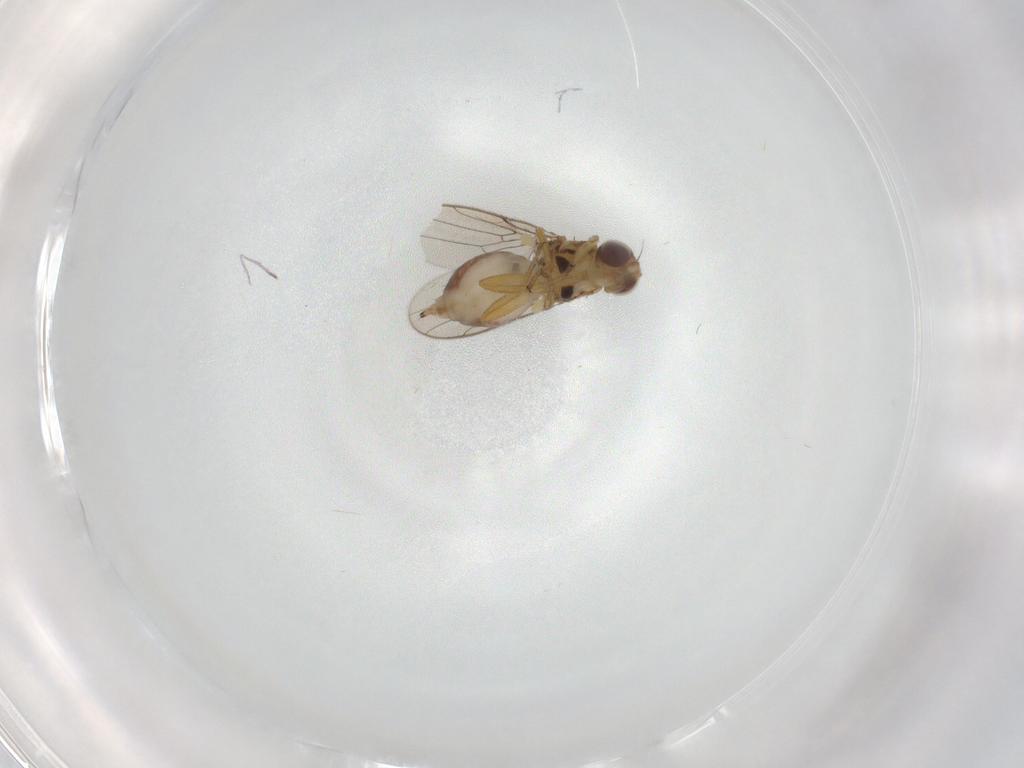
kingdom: Animalia
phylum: Arthropoda
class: Insecta
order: Diptera
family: Chloropidae
